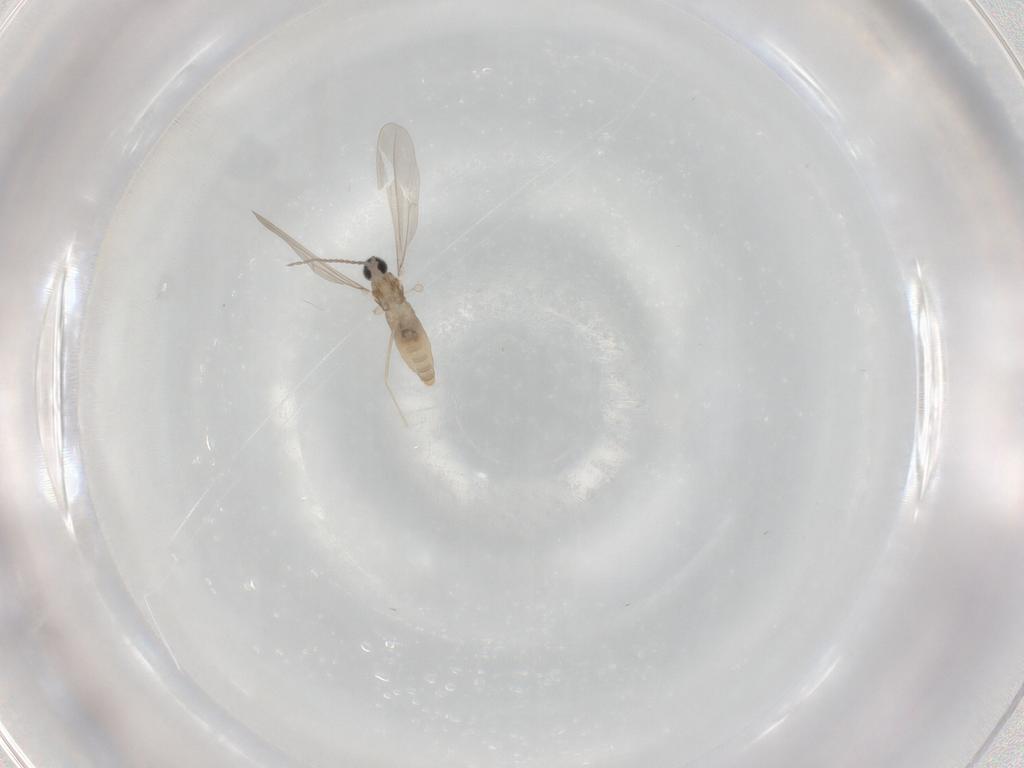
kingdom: Animalia
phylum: Arthropoda
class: Insecta
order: Diptera
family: Cecidomyiidae
